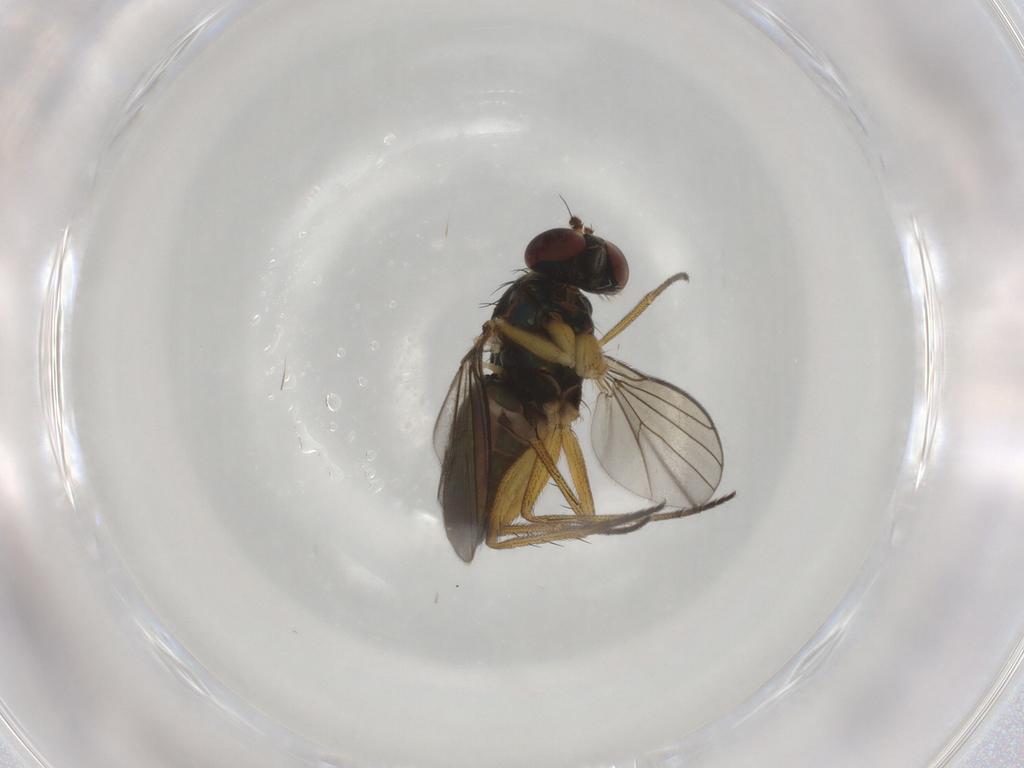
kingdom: Animalia
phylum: Arthropoda
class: Insecta
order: Diptera
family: Dolichopodidae
